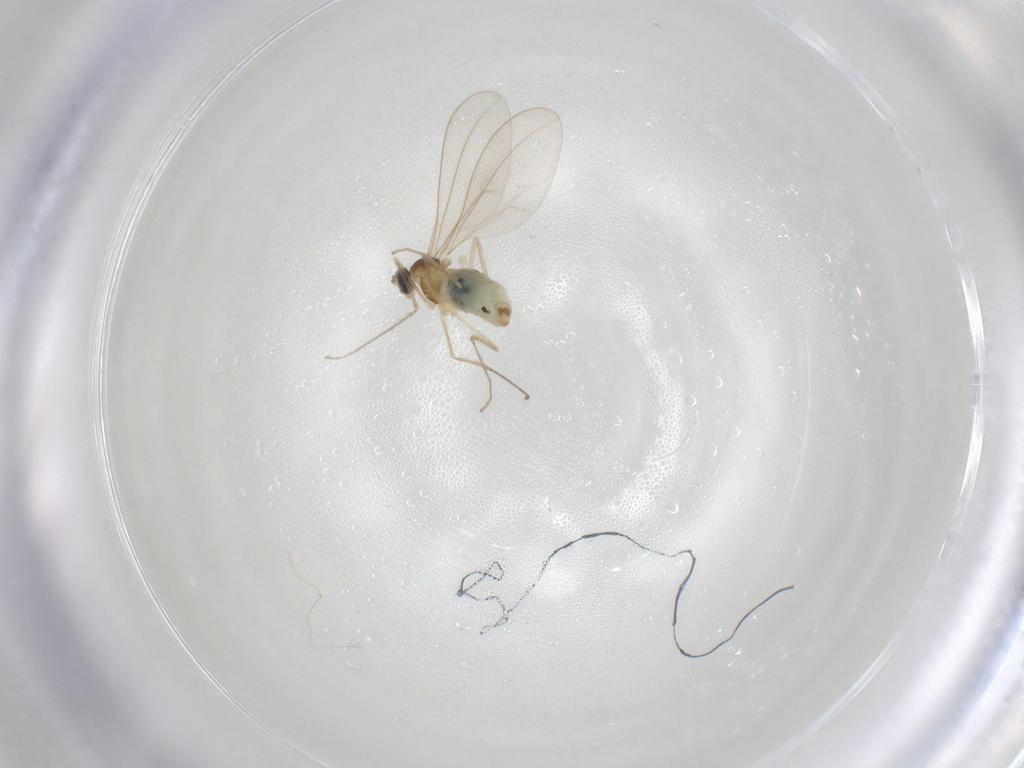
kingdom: Animalia
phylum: Arthropoda
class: Insecta
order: Diptera
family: Cecidomyiidae
